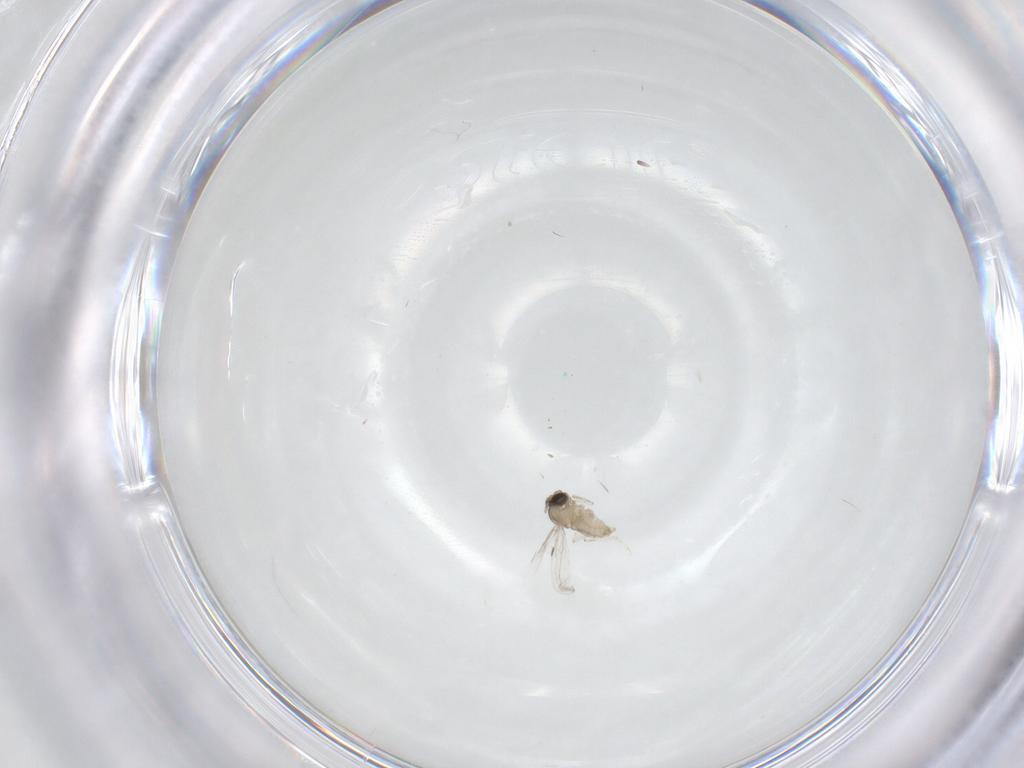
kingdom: Animalia
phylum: Arthropoda
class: Insecta
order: Diptera
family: Cecidomyiidae
